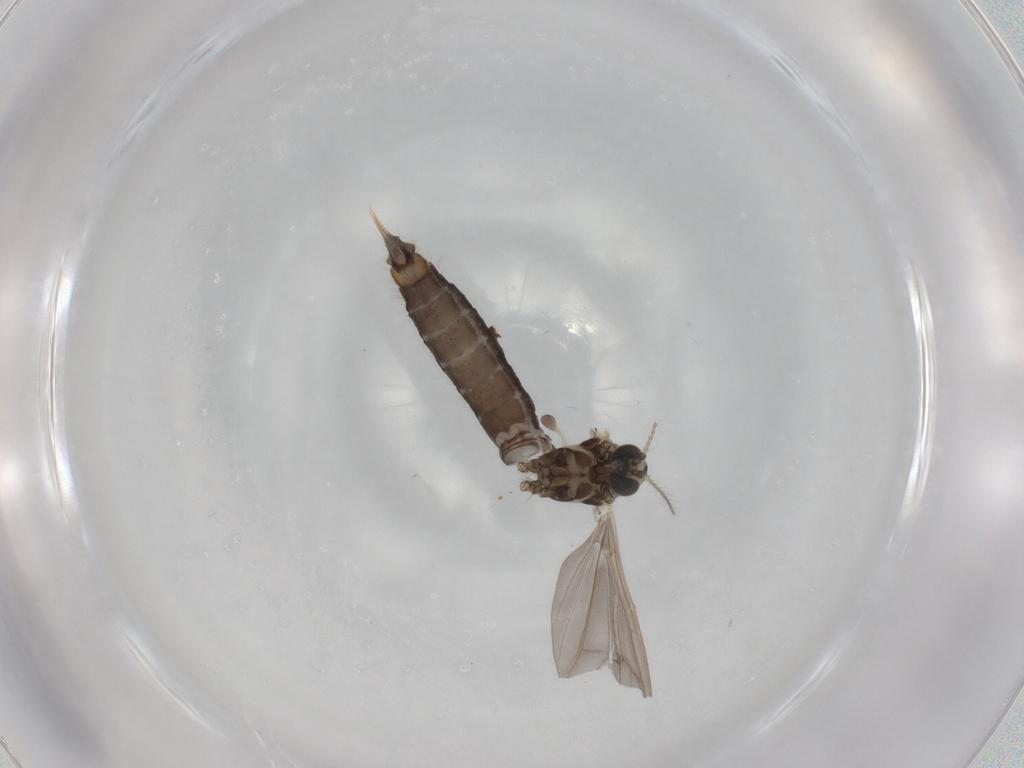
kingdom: Animalia
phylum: Arthropoda
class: Insecta
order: Diptera
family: Limoniidae
